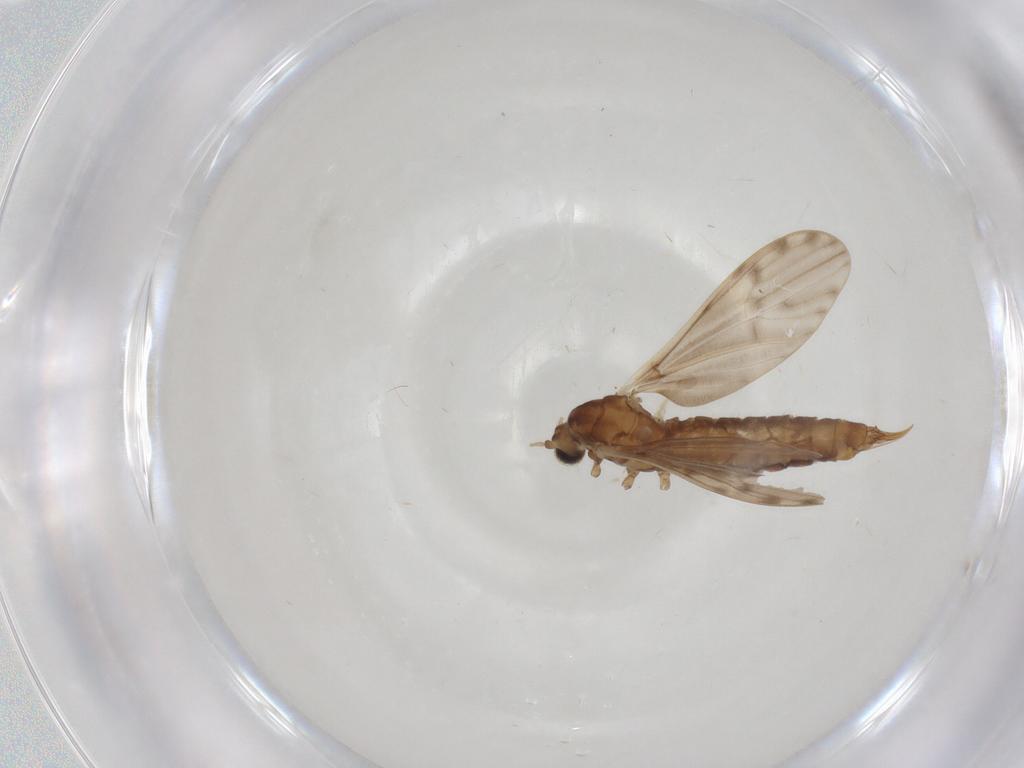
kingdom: Animalia
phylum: Arthropoda
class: Insecta
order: Diptera
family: Limoniidae
